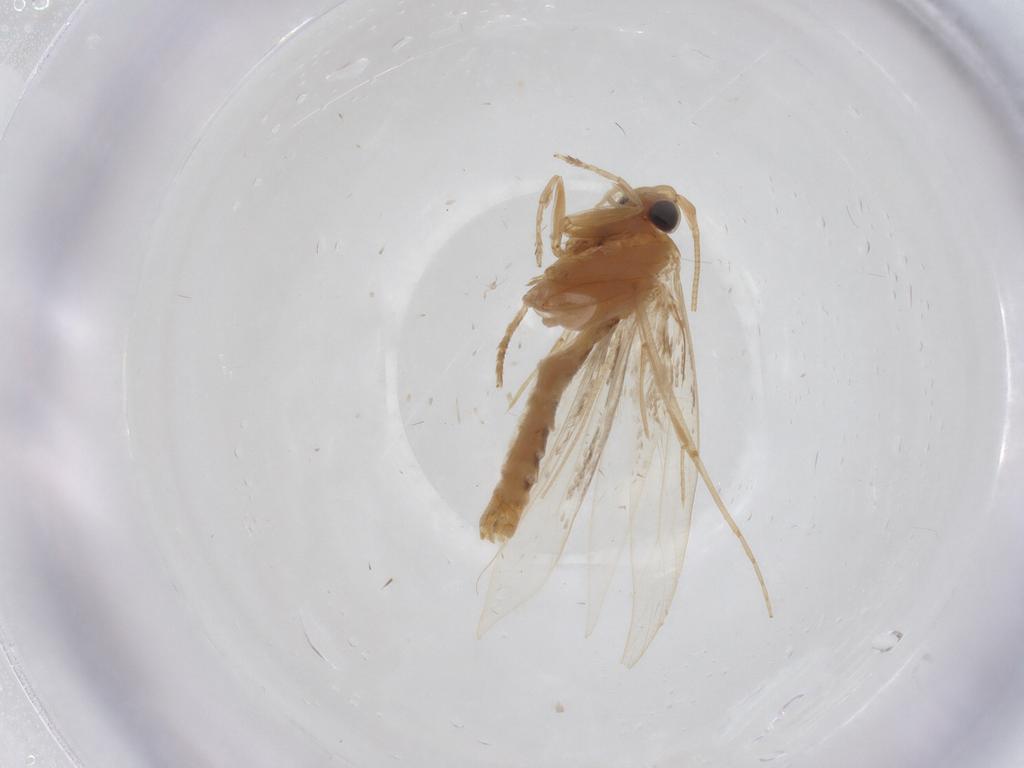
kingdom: Animalia
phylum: Arthropoda
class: Insecta
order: Lepidoptera
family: Tineidae
